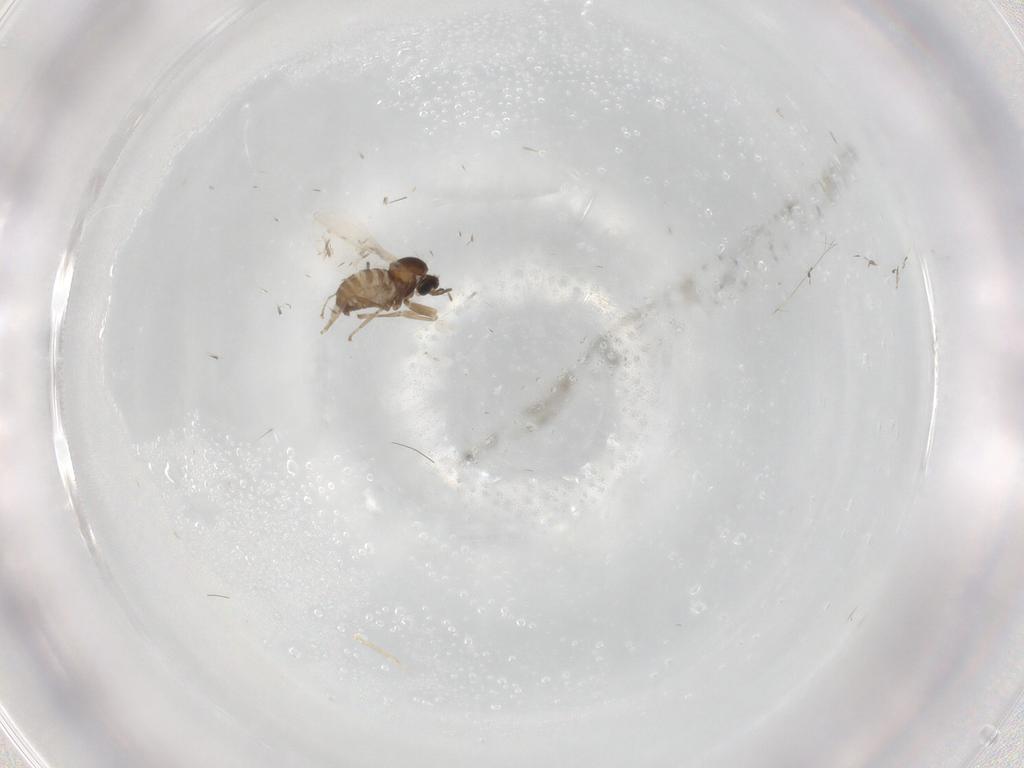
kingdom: Animalia
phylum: Arthropoda
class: Insecta
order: Diptera
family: Cecidomyiidae
